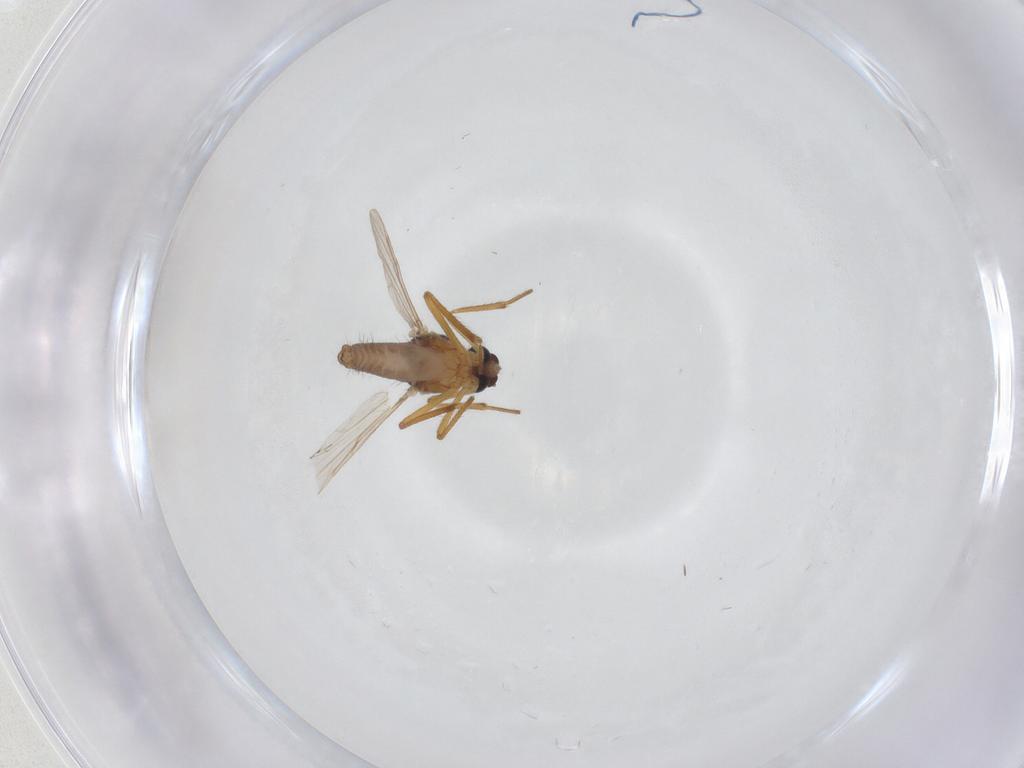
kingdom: Animalia
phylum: Arthropoda
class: Insecta
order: Diptera
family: Ceratopogonidae
